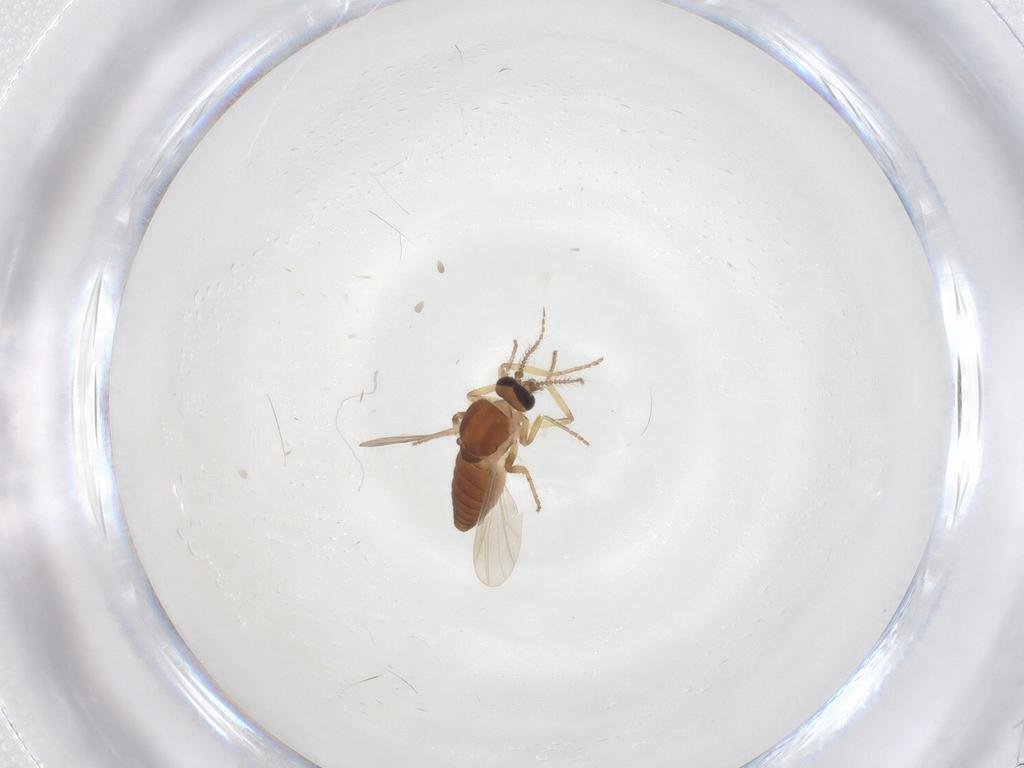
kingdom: Animalia
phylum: Arthropoda
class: Insecta
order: Diptera
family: Ceratopogonidae
